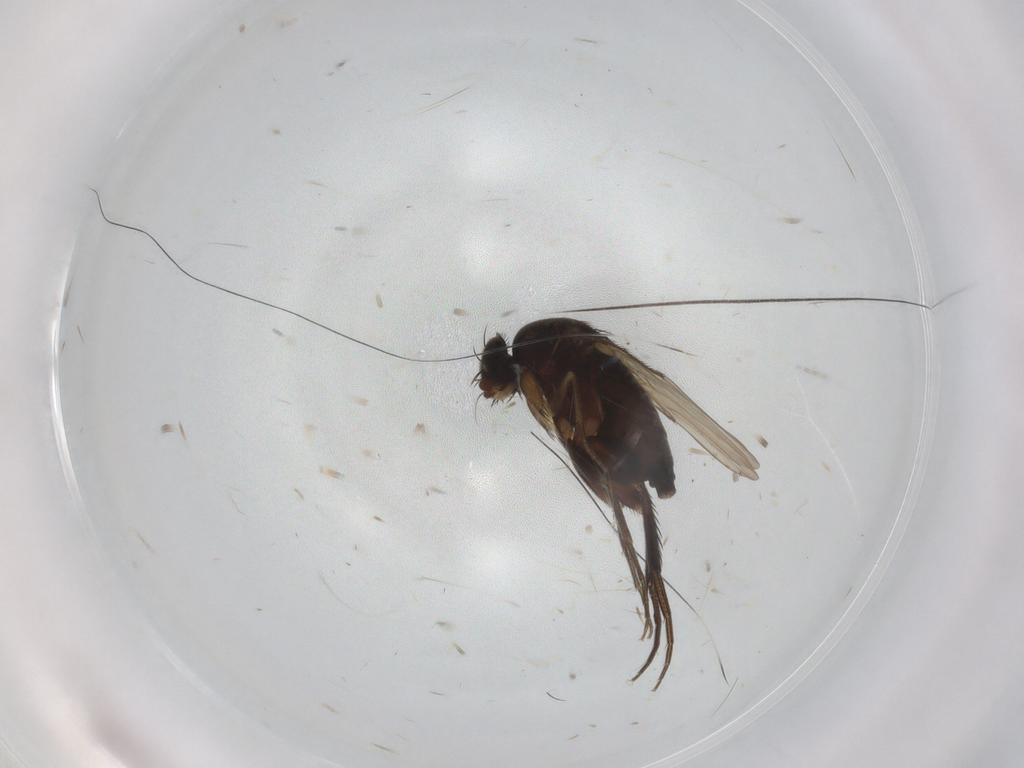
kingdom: Animalia
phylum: Arthropoda
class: Insecta
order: Diptera
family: Phoridae
